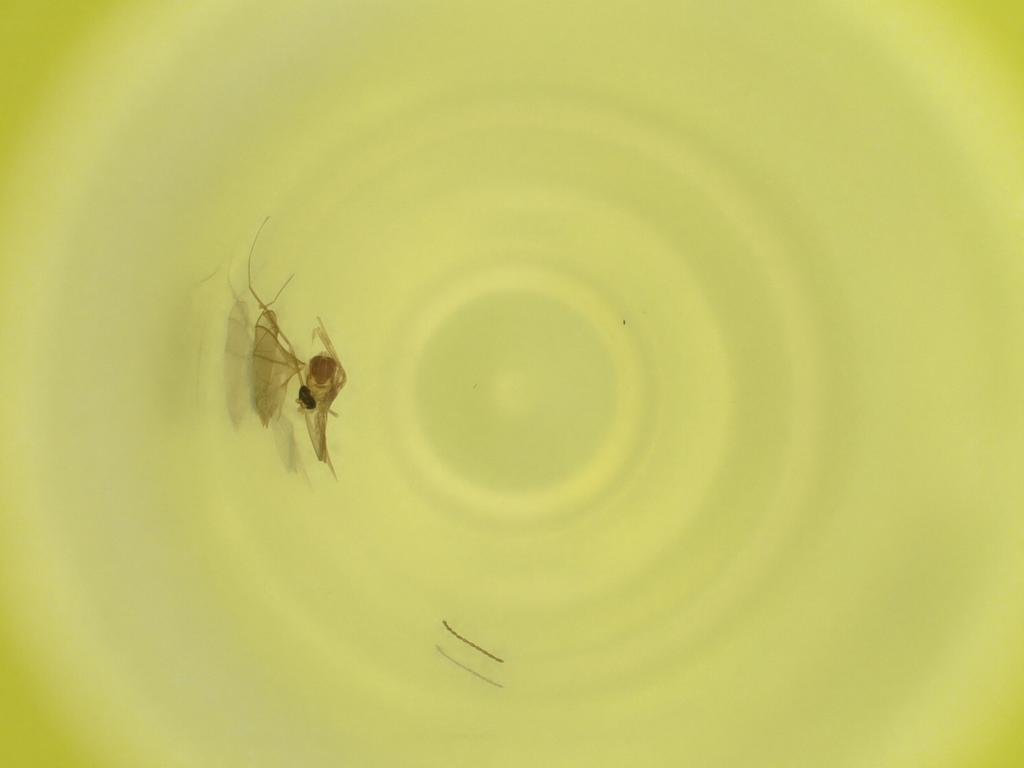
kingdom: Animalia
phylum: Arthropoda
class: Insecta
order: Diptera
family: Cecidomyiidae
